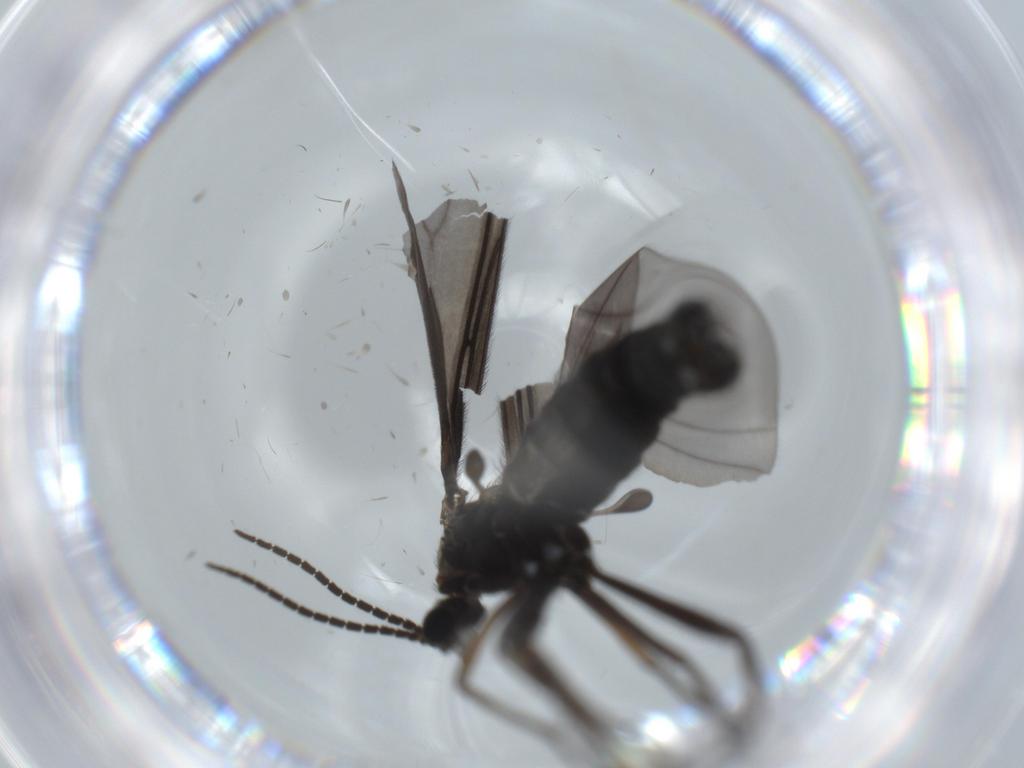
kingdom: Animalia
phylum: Arthropoda
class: Insecta
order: Diptera
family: Sciaridae
